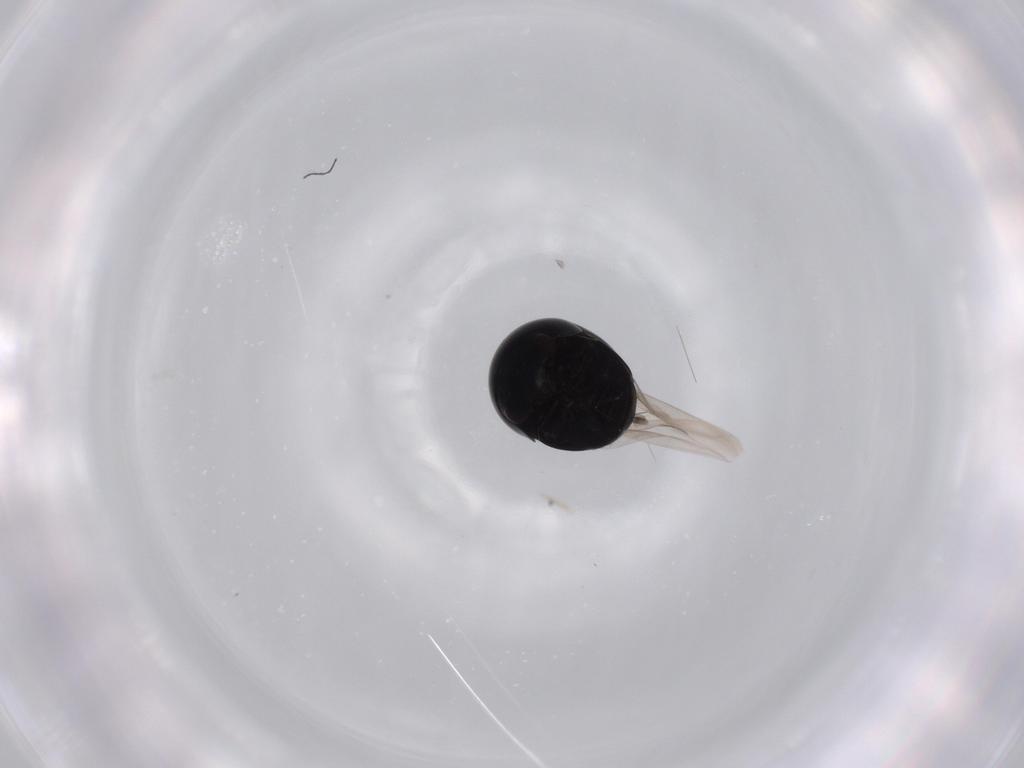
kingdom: Animalia
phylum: Arthropoda
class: Insecta
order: Coleoptera
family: Cybocephalidae
